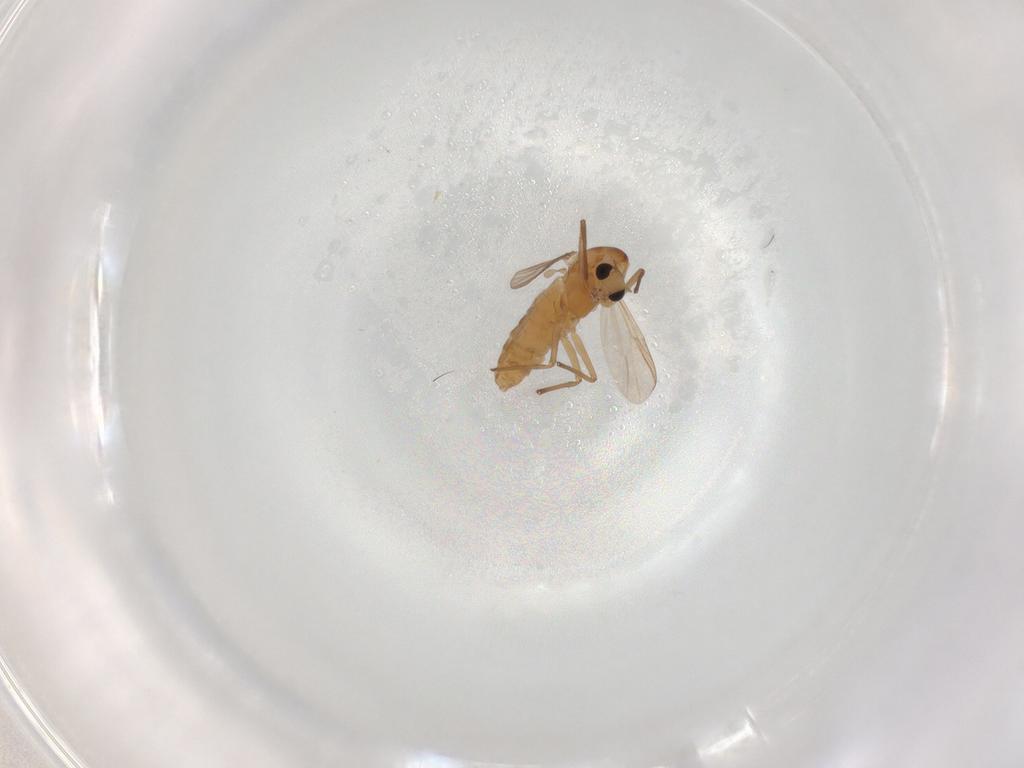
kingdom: Animalia
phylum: Arthropoda
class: Insecta
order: Diptera
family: Chironomidae
